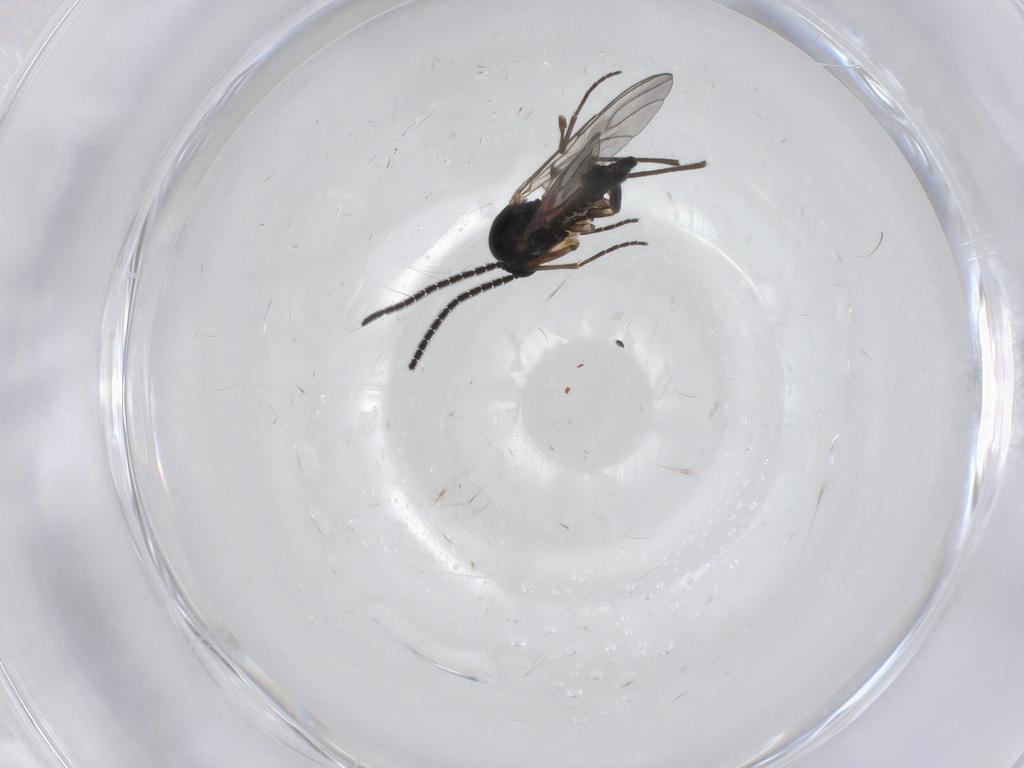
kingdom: Animalia
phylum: Arthropoda
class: Insecta
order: Diptera
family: Sciaridae
